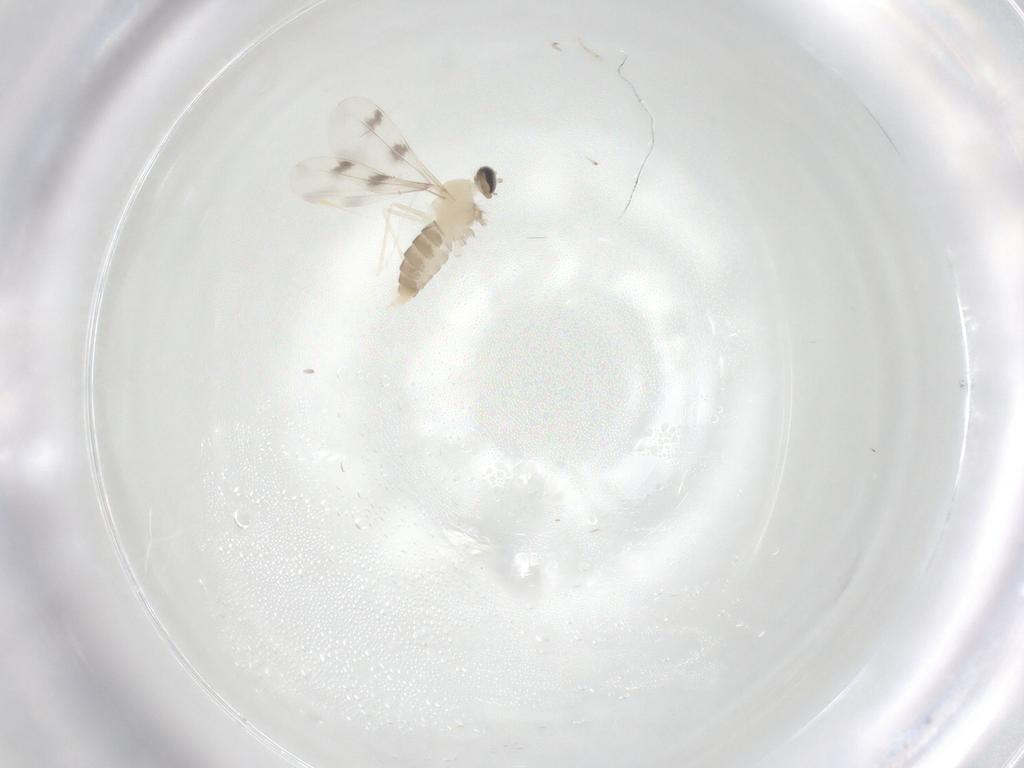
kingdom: Animalia
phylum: Arthropoda
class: Insecta
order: Diptera
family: Cecidomyiidae
